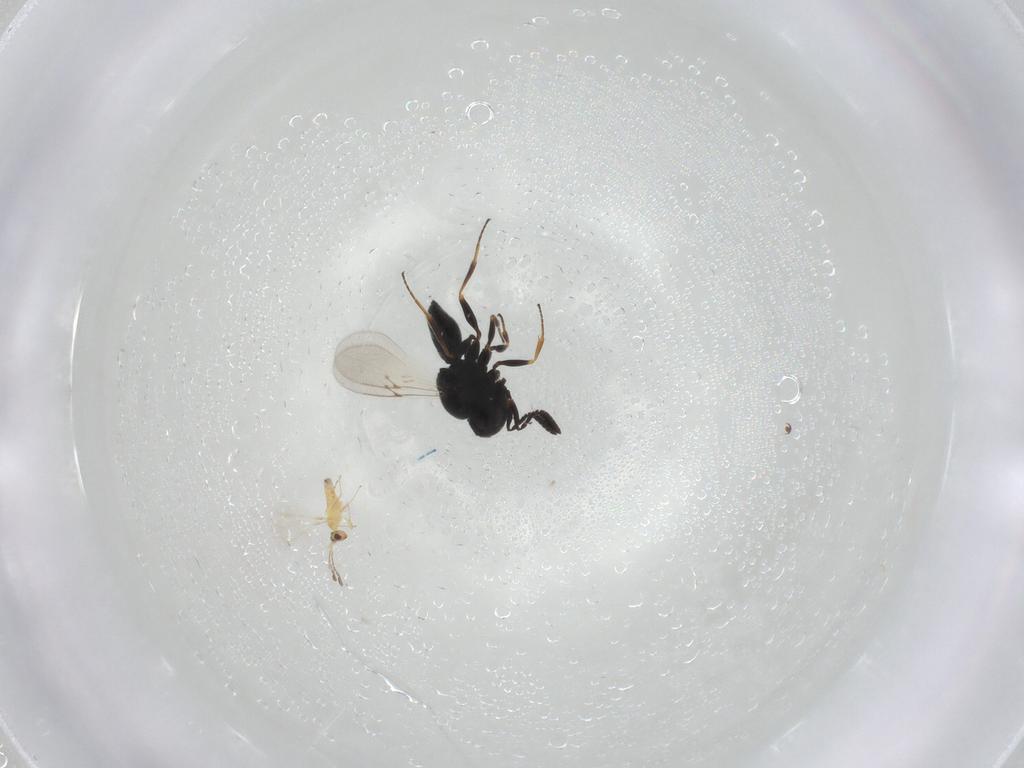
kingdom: Animalia
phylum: Arthropoda
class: Insecta
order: Hymenoptera
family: Scelionidae
